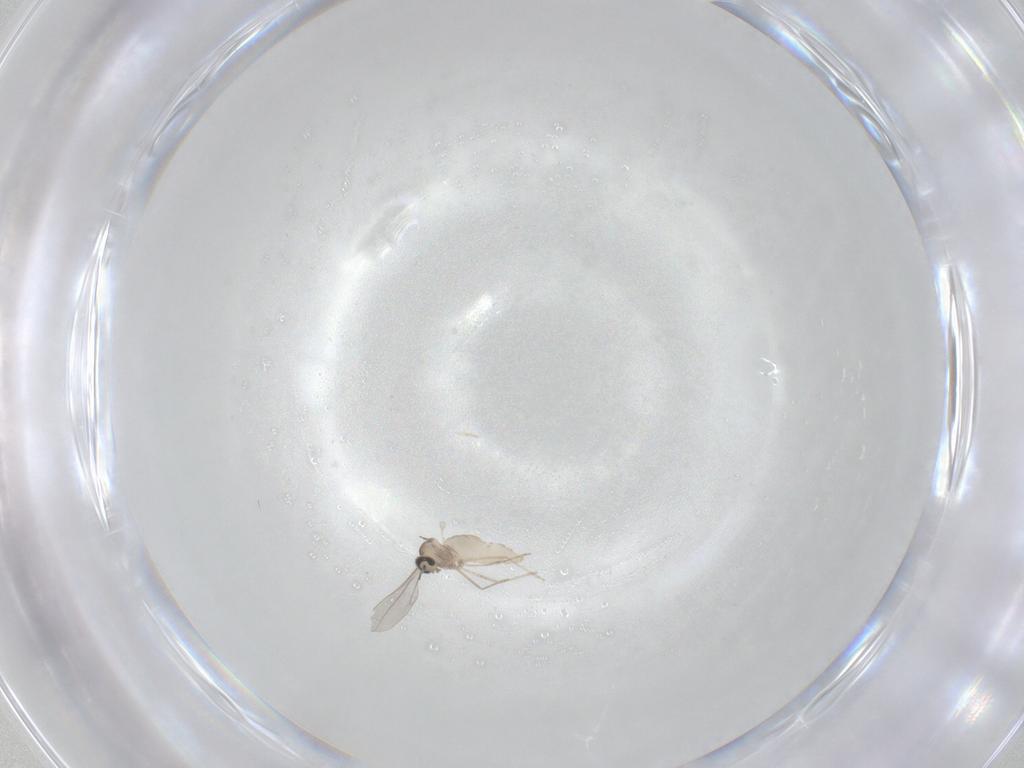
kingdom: Animalia
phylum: Arthropoda
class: Insecta
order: Diptera
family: Cecidomyiidae
